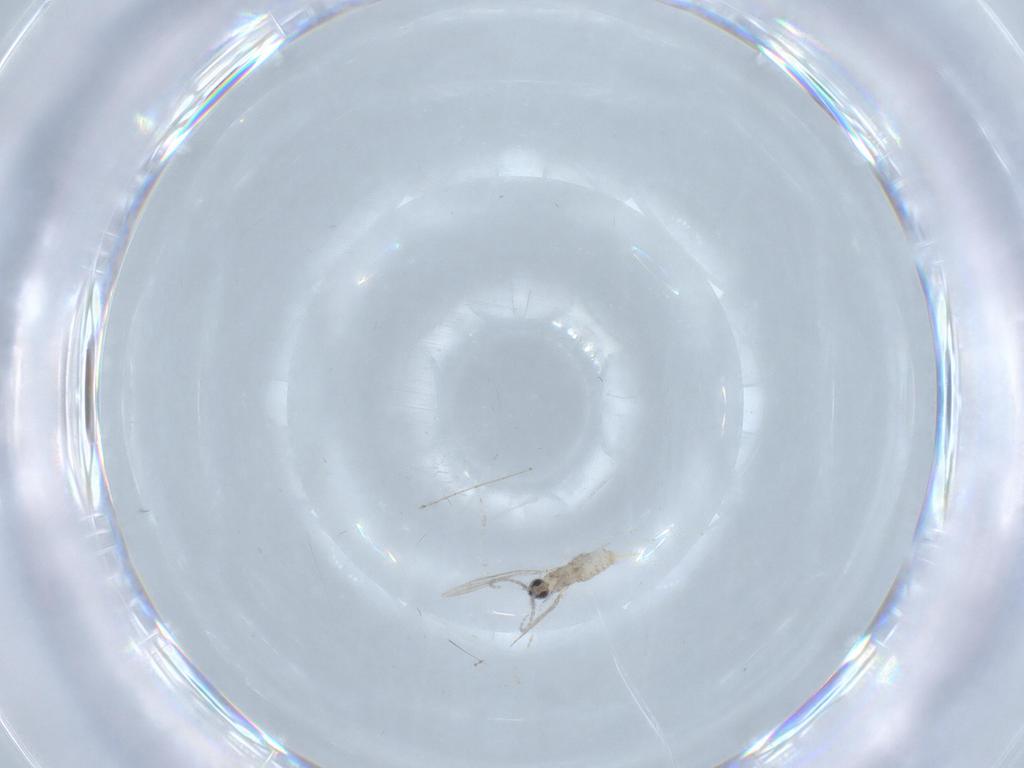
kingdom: Animalia
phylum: Arthropoda
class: Insecta
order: Diptera
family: Cecidomyiidae
